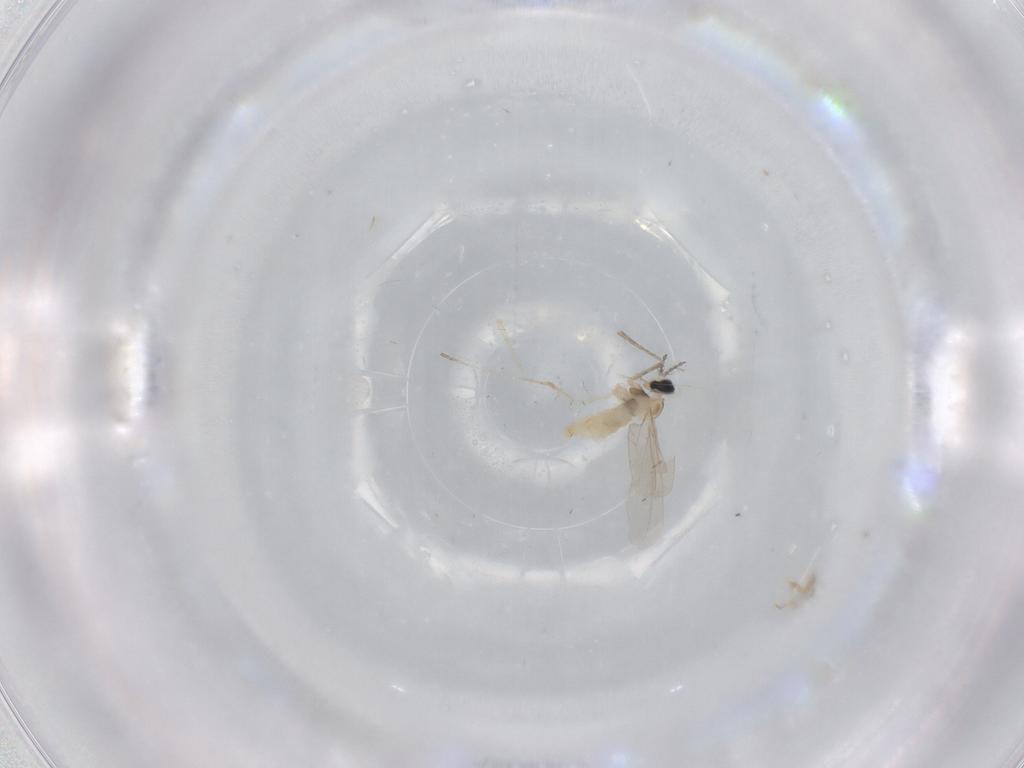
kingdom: Animalia
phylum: Arthropoda
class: Insecta
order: Diptera
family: Cecidomyiidae
